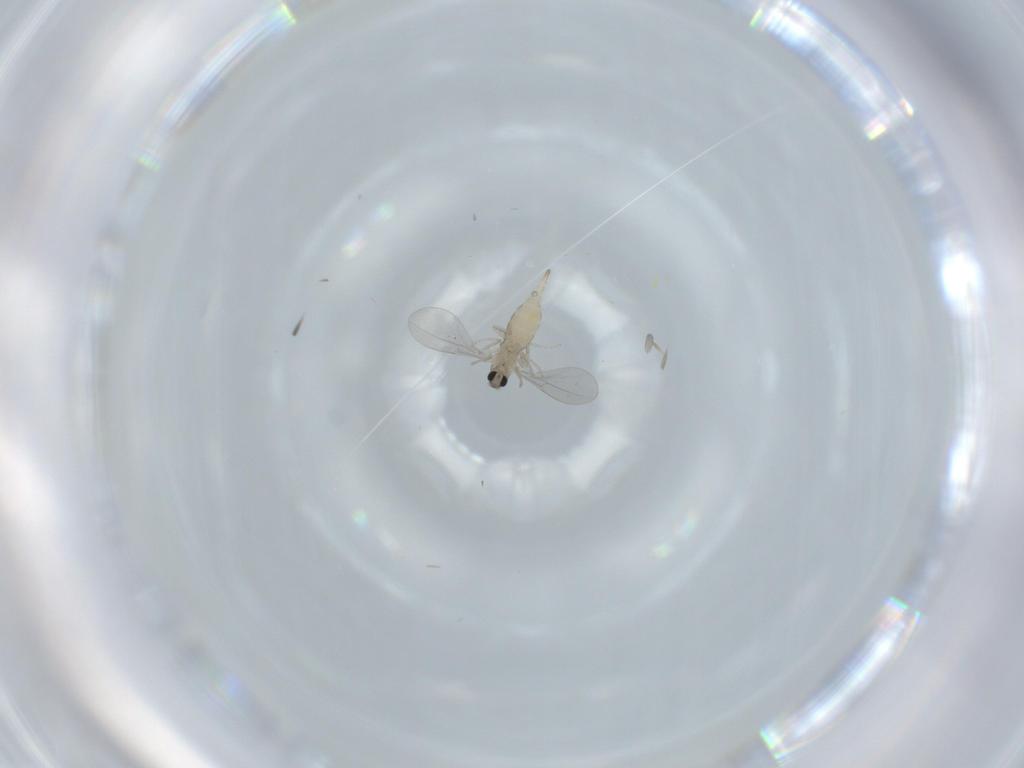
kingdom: Animalia
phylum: Arthropoda
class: Insecta
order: Diptera
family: Cecidomyiidae
